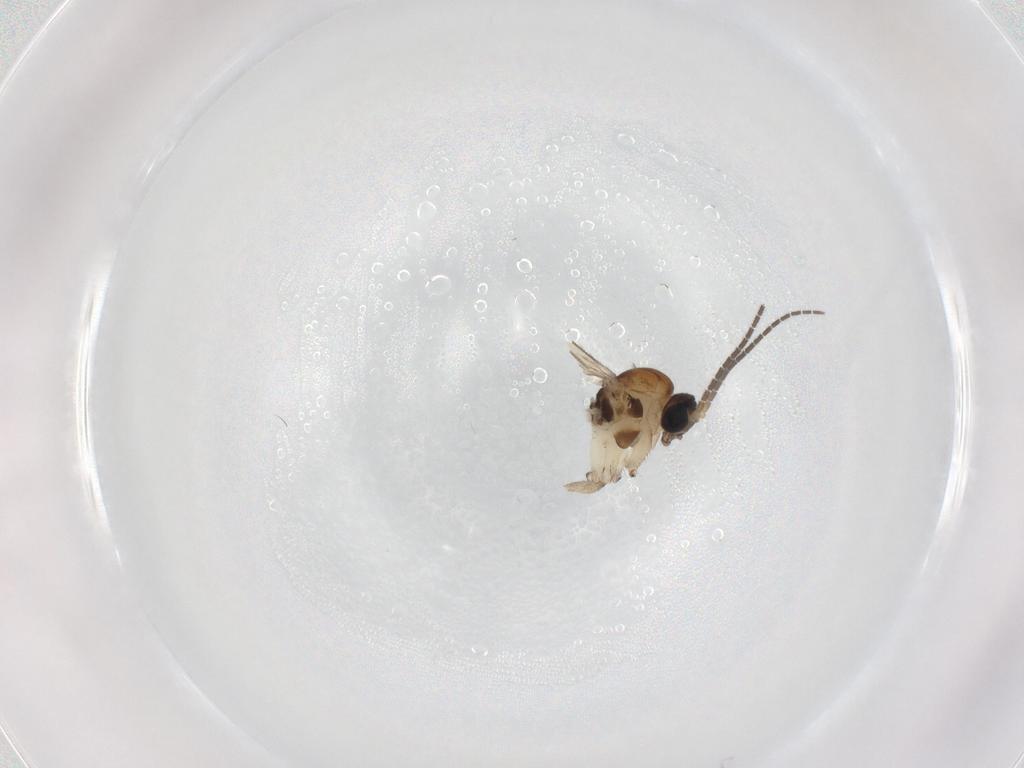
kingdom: Animalia
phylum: Arthropoda
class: Insecta
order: Diptera
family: Sciaridae
